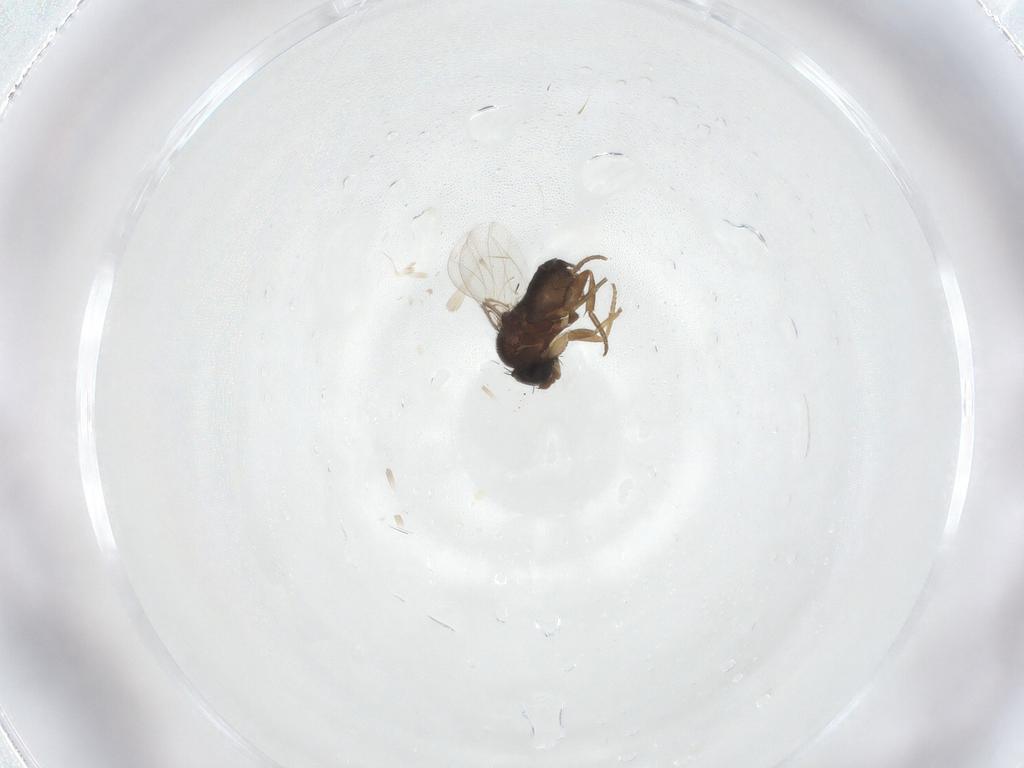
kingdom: Animalia
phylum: Arthropoda
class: Insecta
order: Diptera
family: Phoridae
